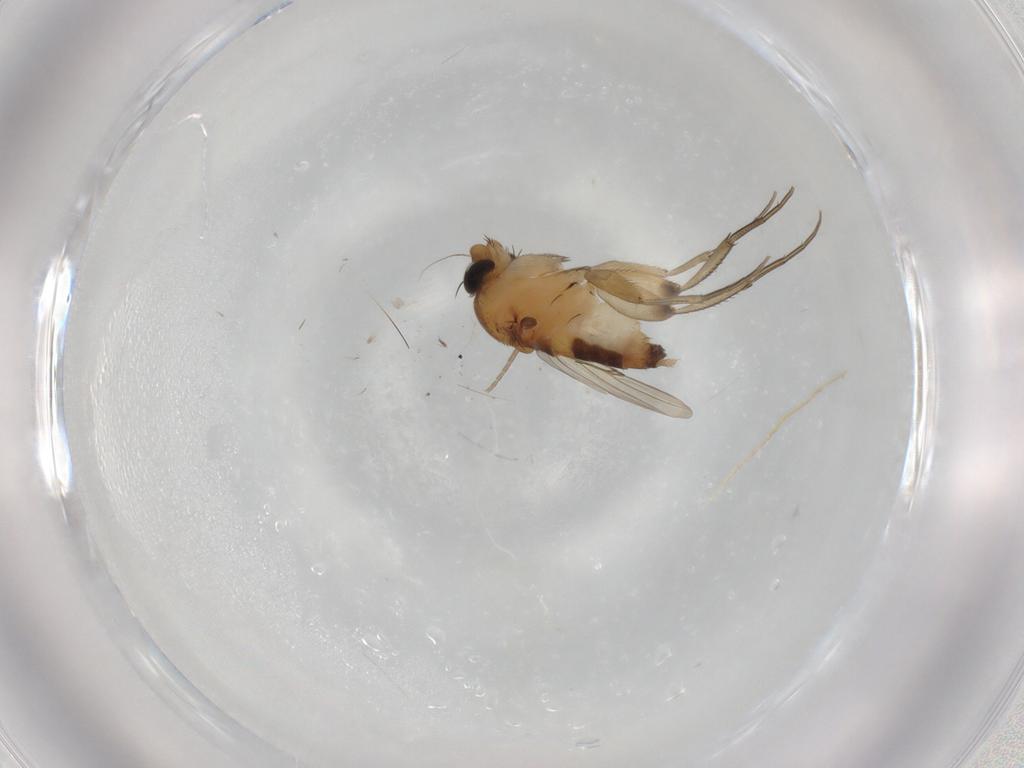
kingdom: Animalia
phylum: Arthropoda
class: Insecta
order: Diptera
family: Phoridae
